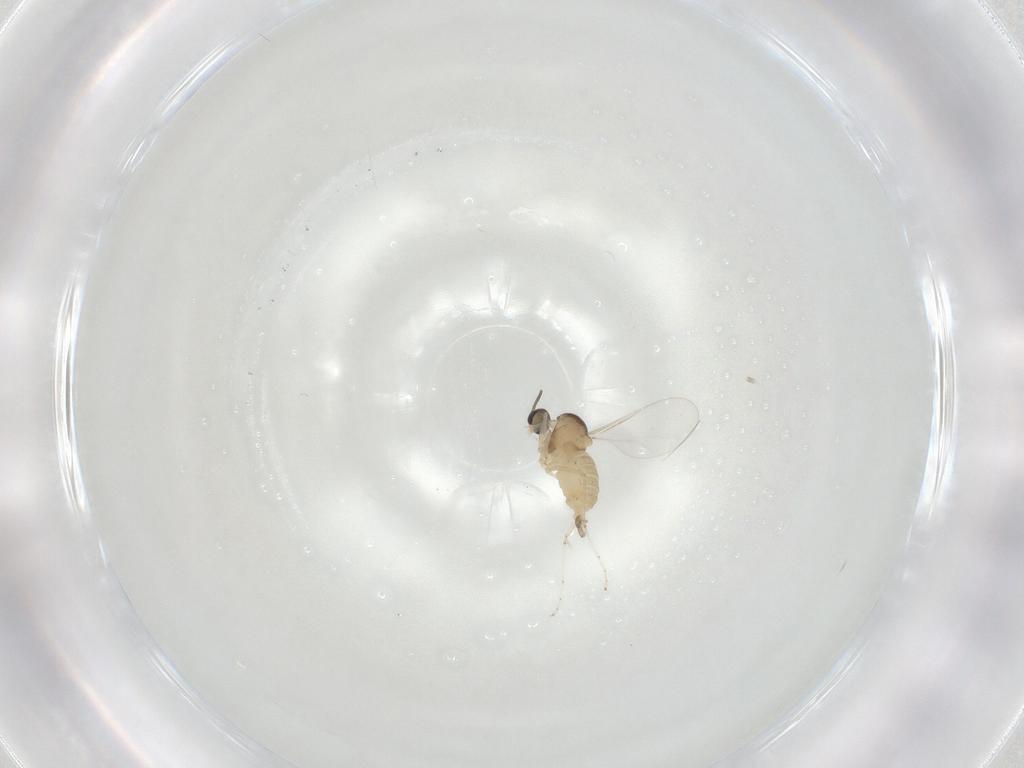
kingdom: Animalia
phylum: Arthropoda
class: Insecta
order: Diptera
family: Cecidomyiidae
